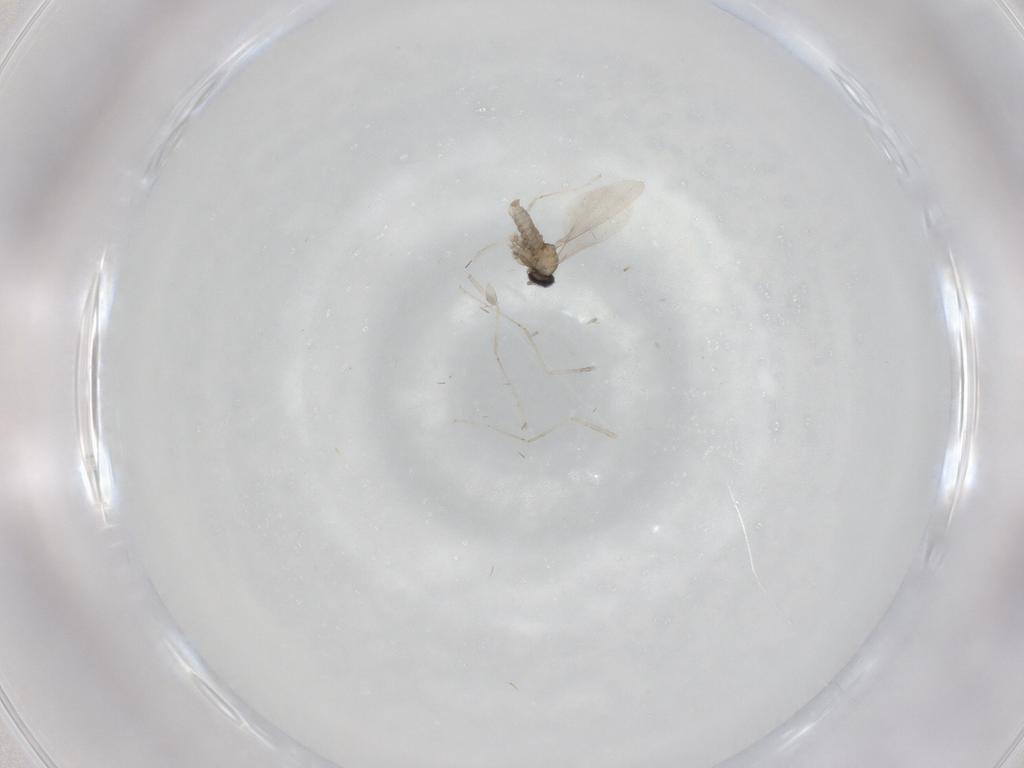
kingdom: Animalia
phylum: Arthropoda
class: Insecta
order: Diptera
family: Cecidomyiidae
